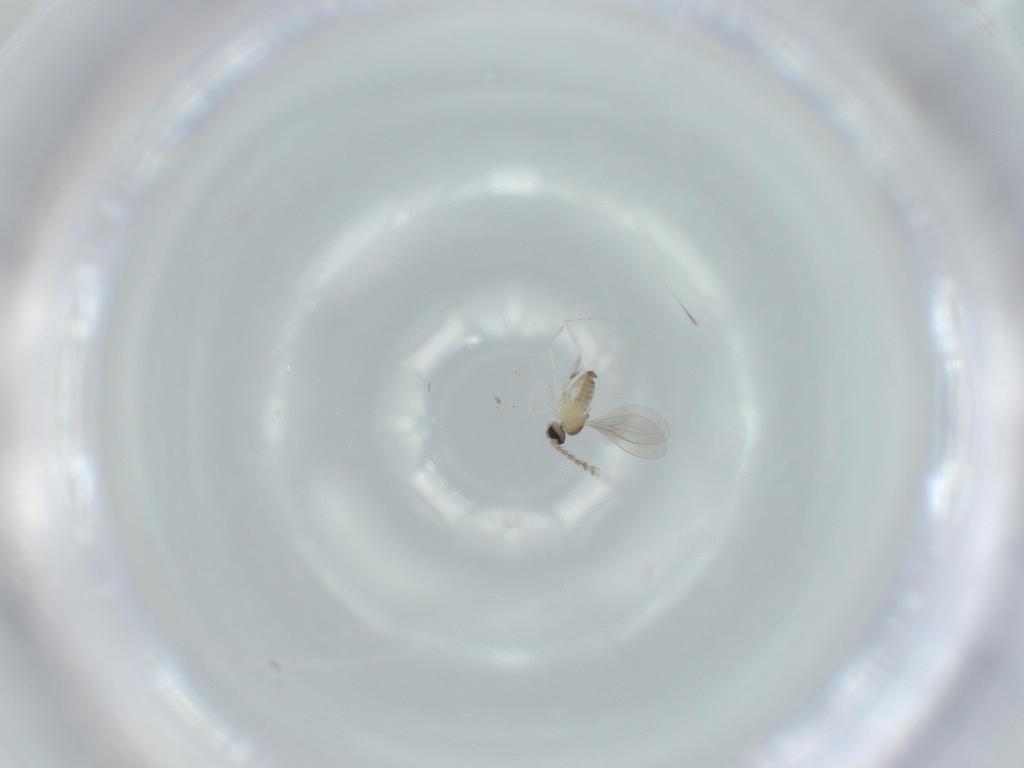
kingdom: Animalia
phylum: Arthropoda
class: Insecta
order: Diptera
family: Cecidomyiidae
